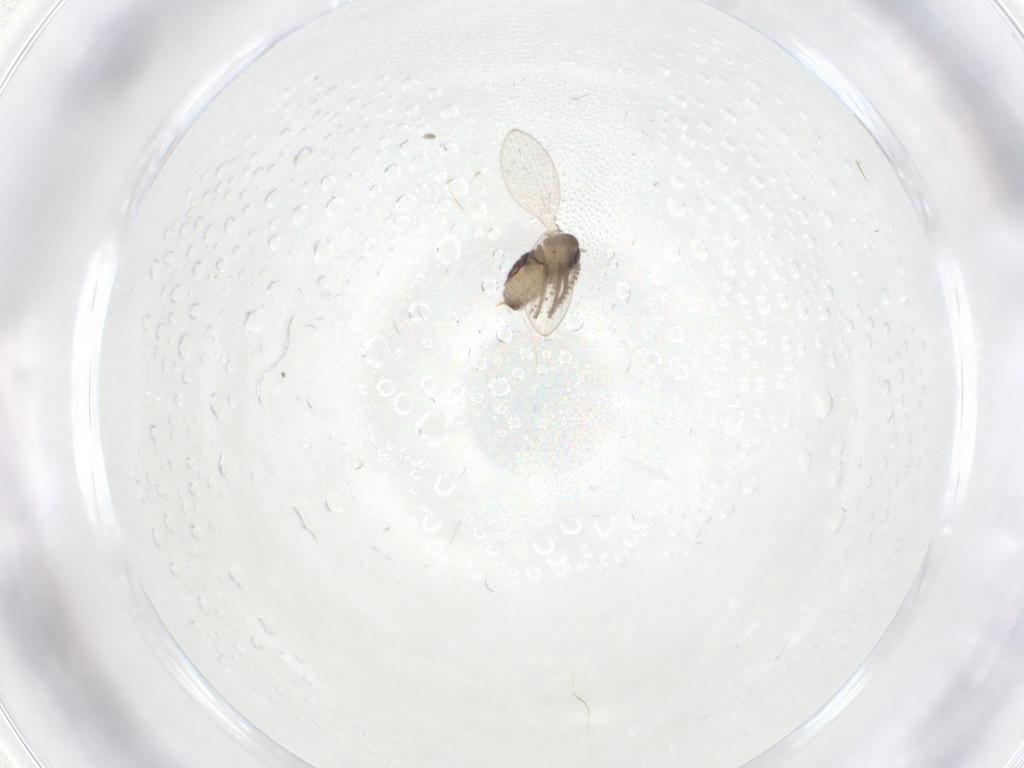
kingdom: Animalia
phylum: Arthropoda
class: Insecta
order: Diptera
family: Psychodidae
